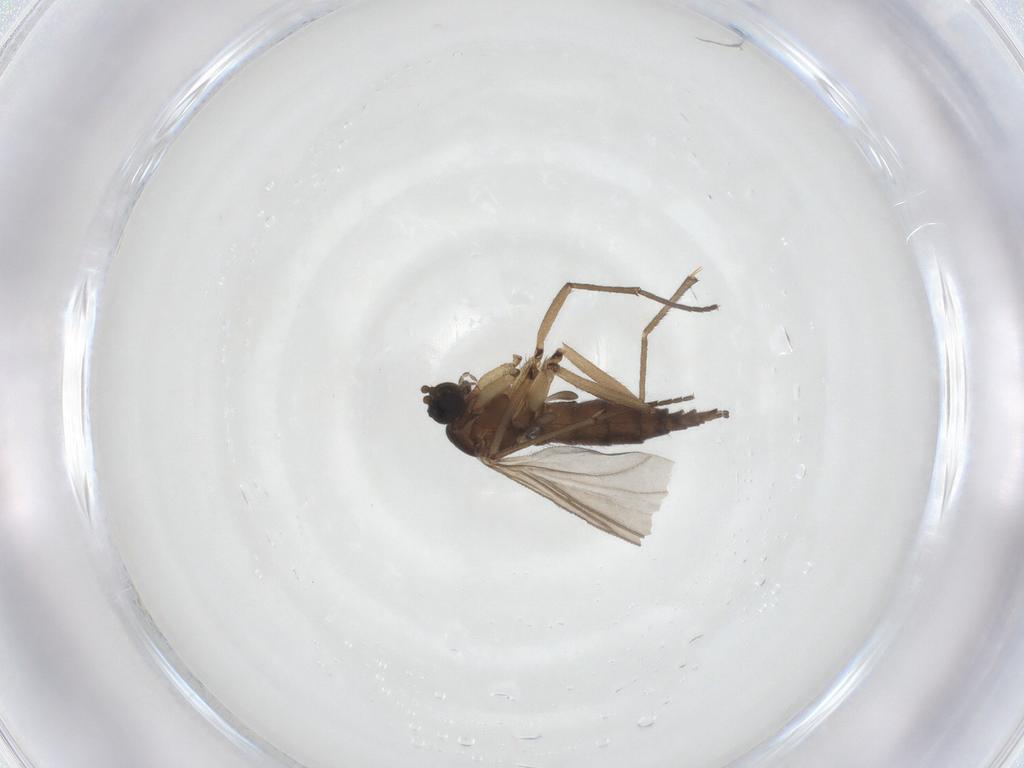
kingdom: Animalia
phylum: Arthropoda
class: Insecta
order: Diptera
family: Sciaridae
